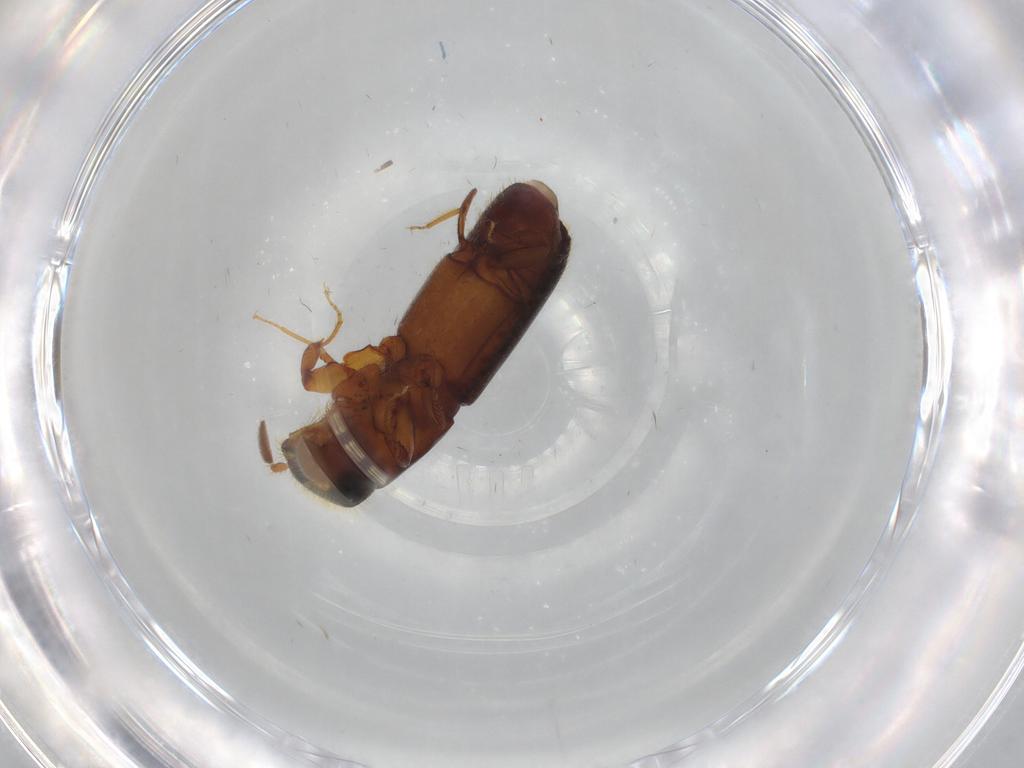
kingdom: Animalia
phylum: Arthropoda
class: Insecta
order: Coleoptera
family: Curculionidae
